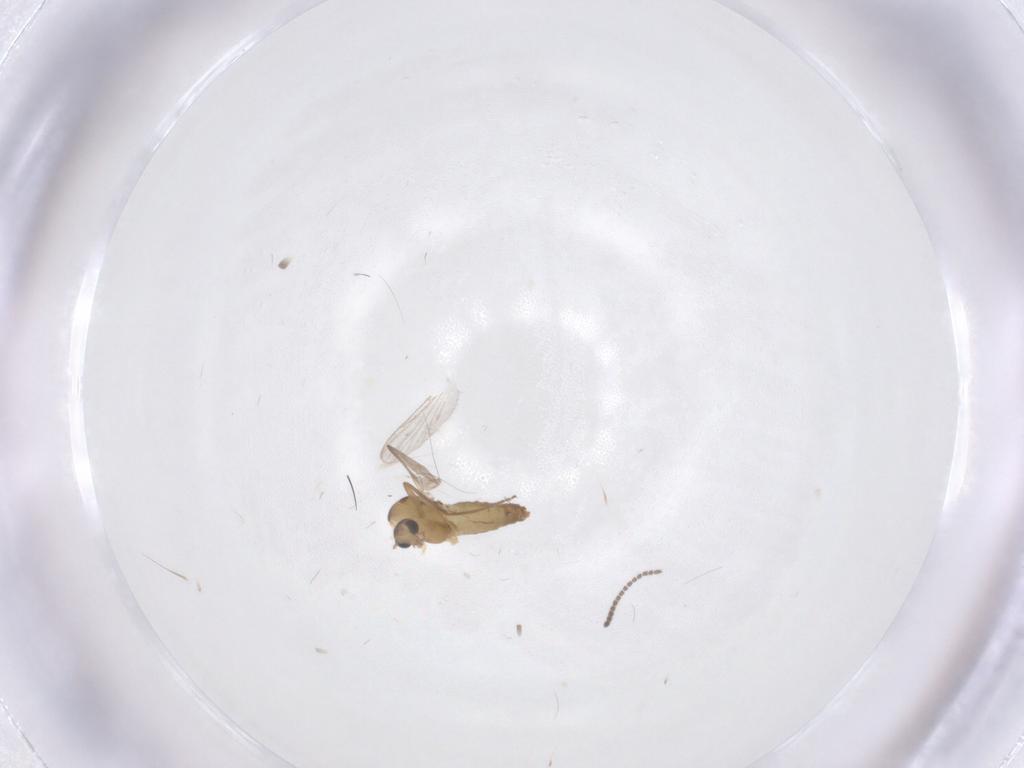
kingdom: Animalia
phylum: Arthropoda
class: Insecta
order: Diptera
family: Sciaridae
